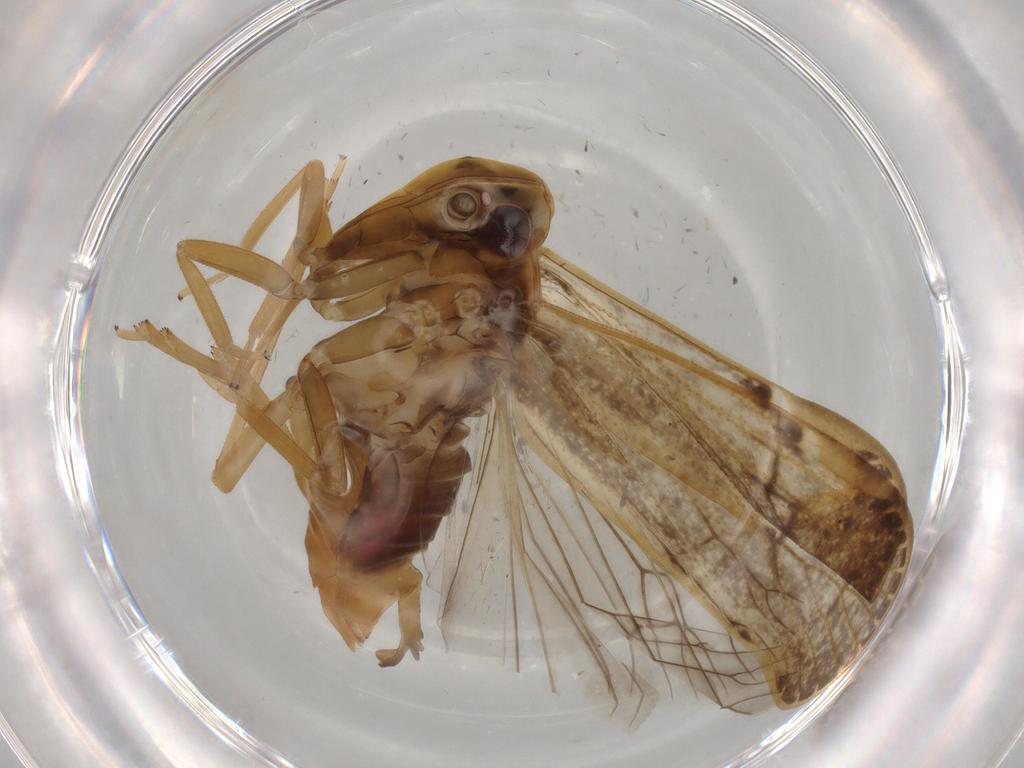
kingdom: Animalia
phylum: Arthropoda
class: Insecta
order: Hemiptera
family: Cixiidae
